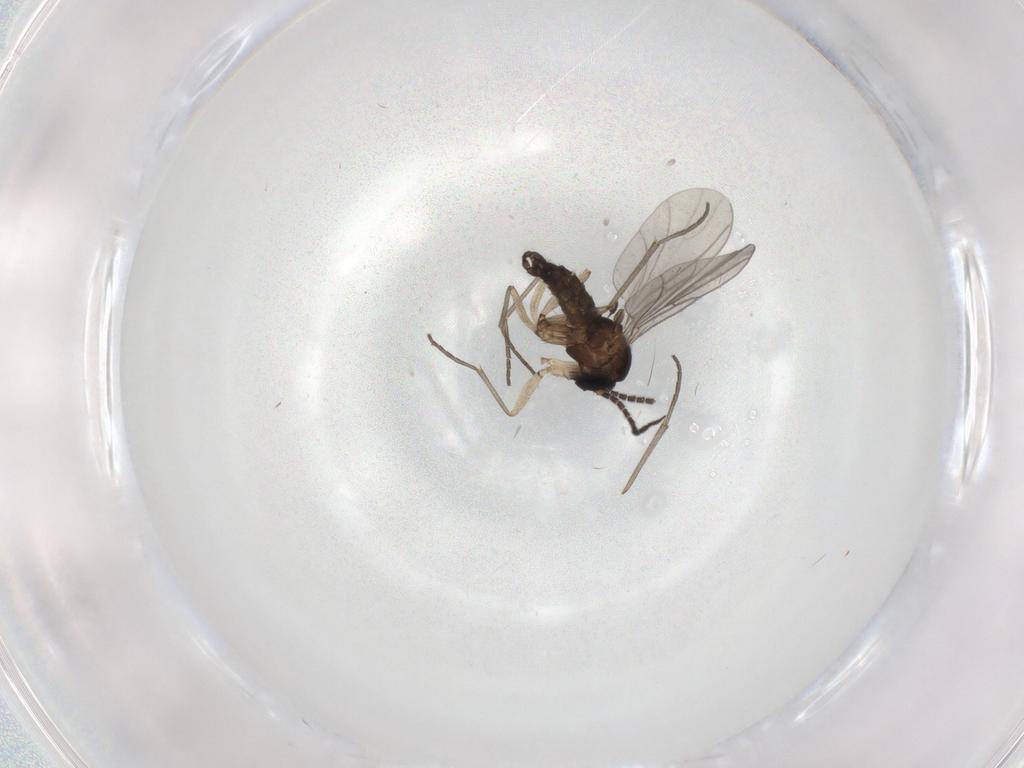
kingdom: Animalia
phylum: Arthropoda
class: Insecta
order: Diptera
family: Sciaridae
